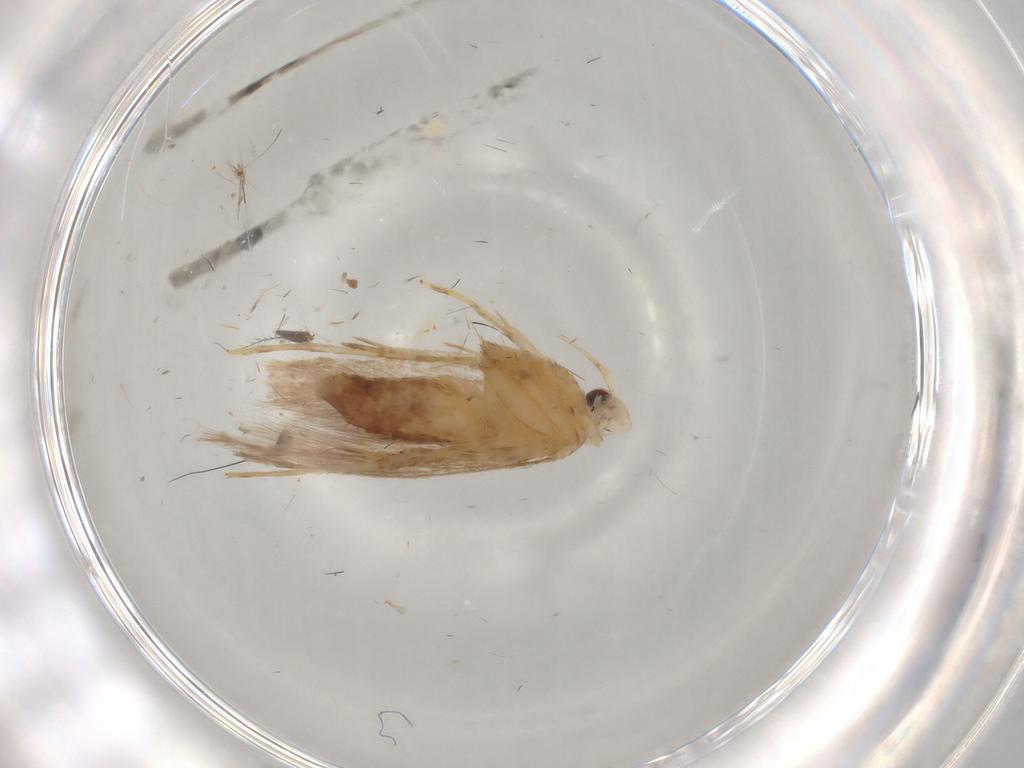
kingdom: Animalia
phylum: Arthropoda
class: Insecta
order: Lepidoptera
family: Cosmopterigidae
